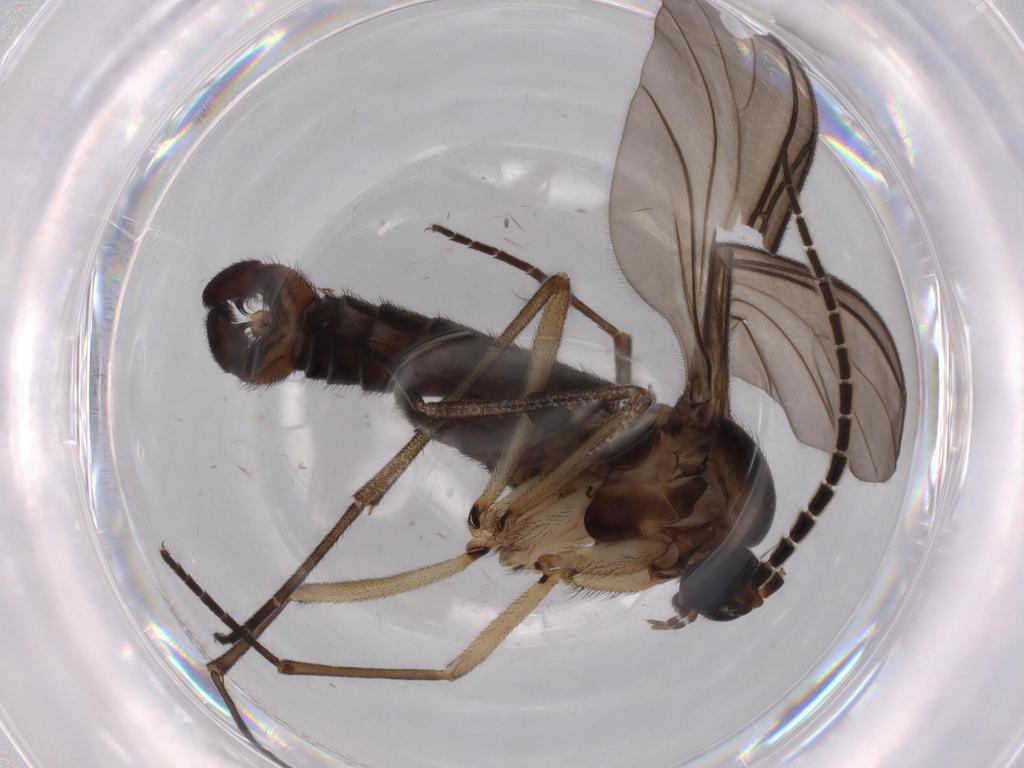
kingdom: Animalia
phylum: Arthropoda
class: Insecta
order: Diptera
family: Sciaridae
